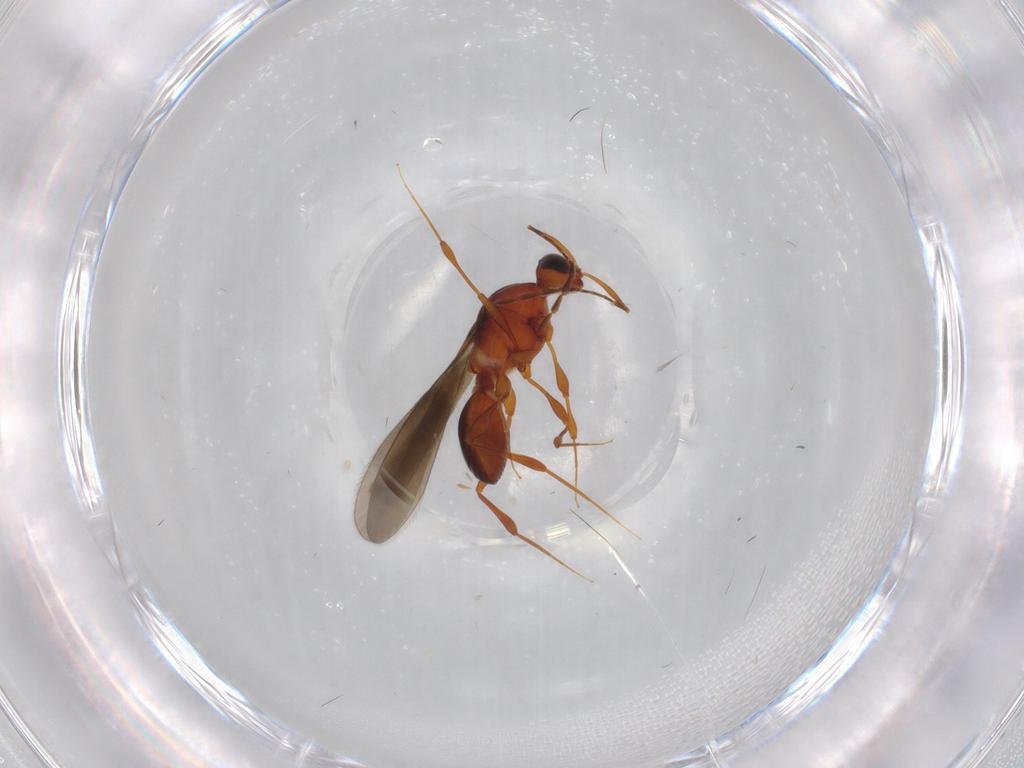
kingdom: Animalia
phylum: Arthropoda
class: Insecta
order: Hymenoptera
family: Platygastridae
